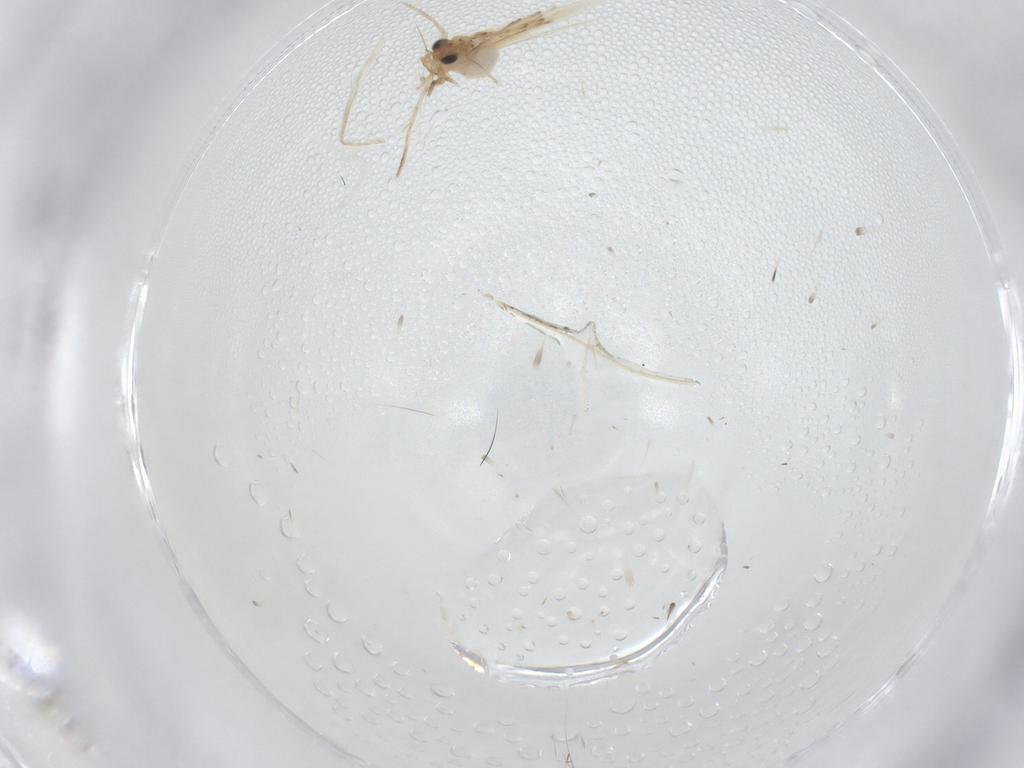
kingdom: Animalia
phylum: Arthropoda
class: Insecta
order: Lepidoptera
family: Nepticulidae
